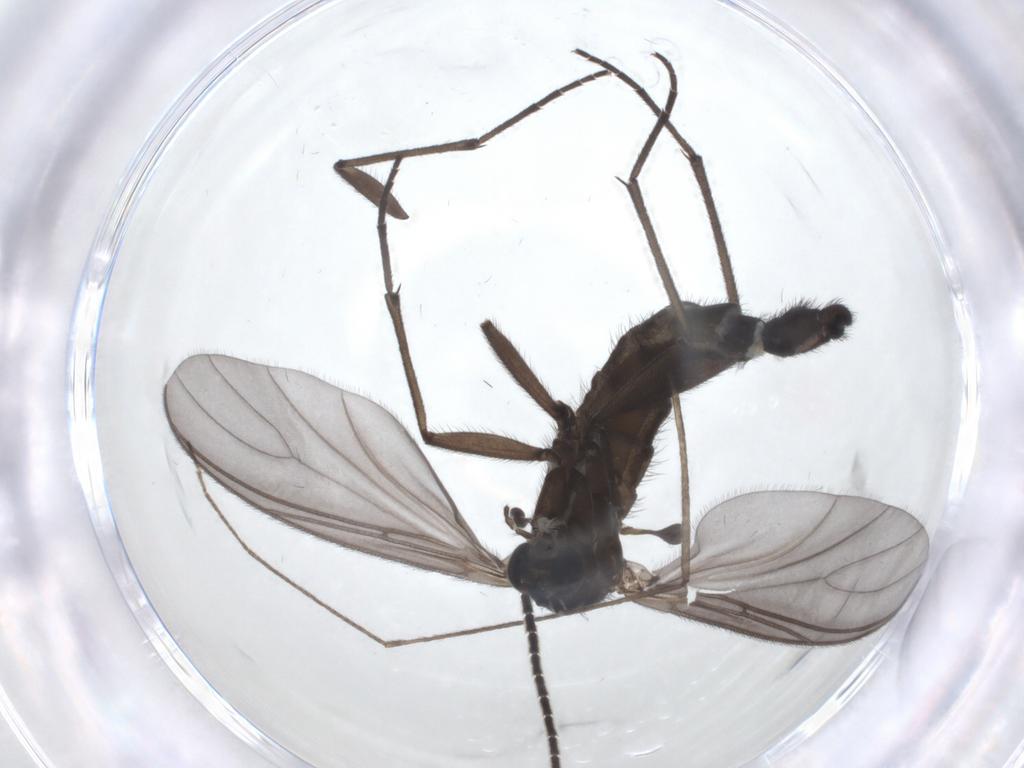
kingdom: Animalia
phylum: Arthropoda
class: Insecta
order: Diptera
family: Limoniidae
